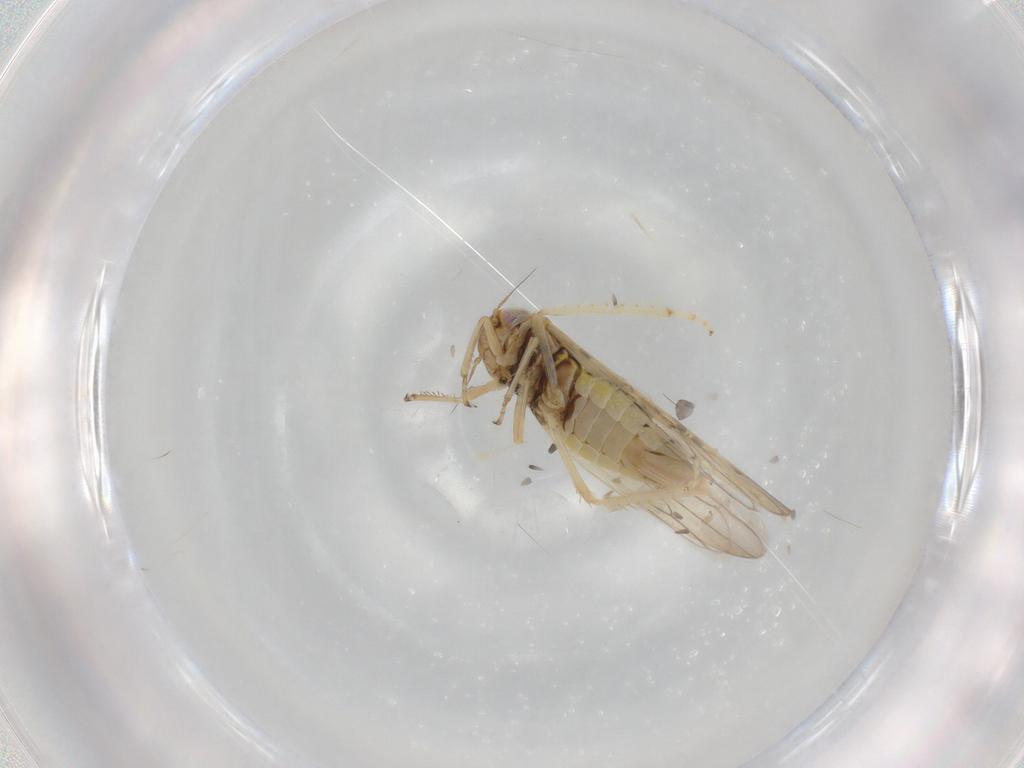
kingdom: Animalia
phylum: Arthropoda
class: Insecta
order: Hemiptera
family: Cicadellidae
